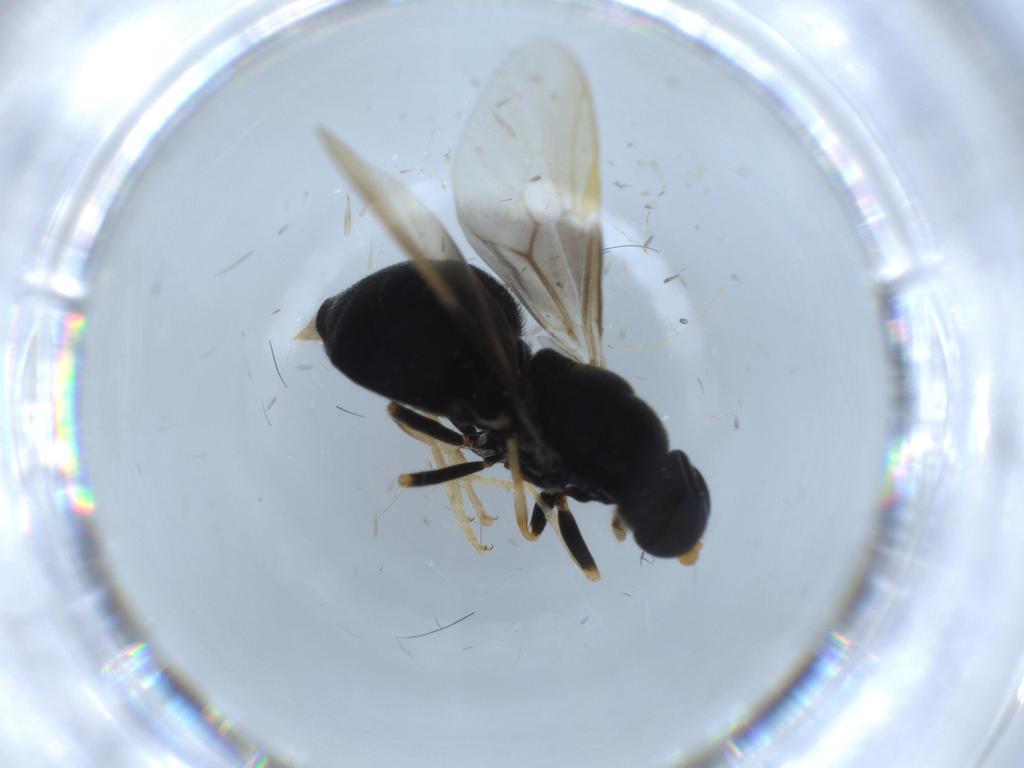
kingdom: Animalia
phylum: Arthropoda
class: Insecta
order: Diptera
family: Stratiomyidae
